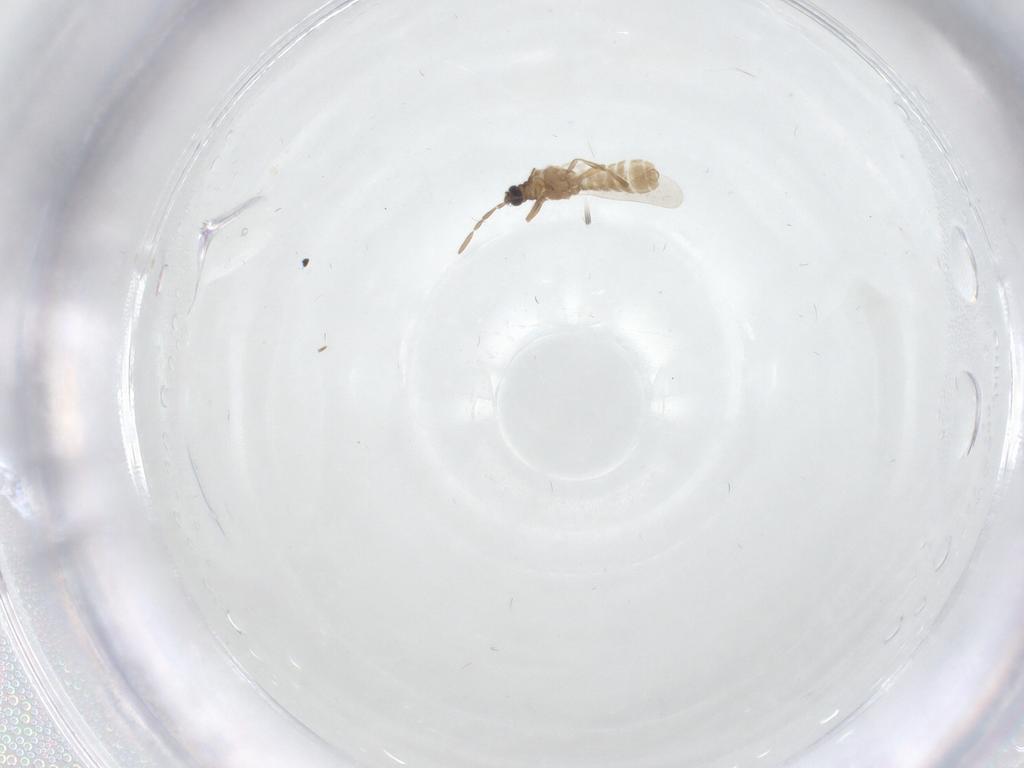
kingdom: Animalia
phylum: Arthropoda
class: Insecta
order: Hemiptera
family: Enicocephalidae
